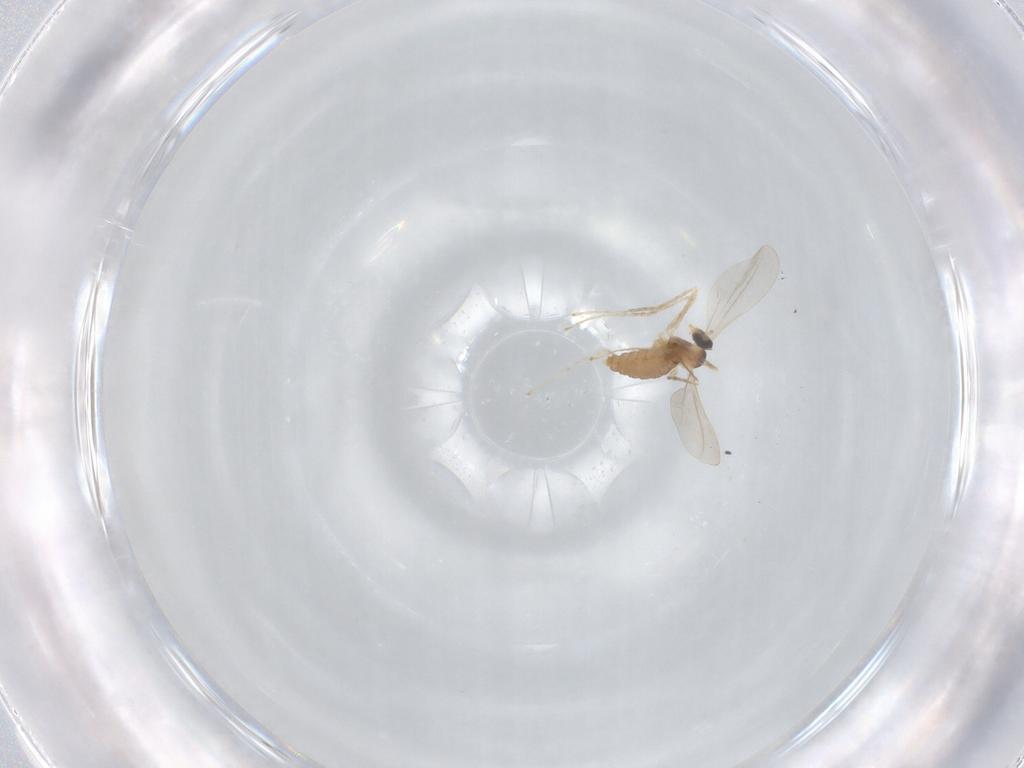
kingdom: Animalia
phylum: Arthropoda
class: Insecta
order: Diptera
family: Cecidomyiidae
